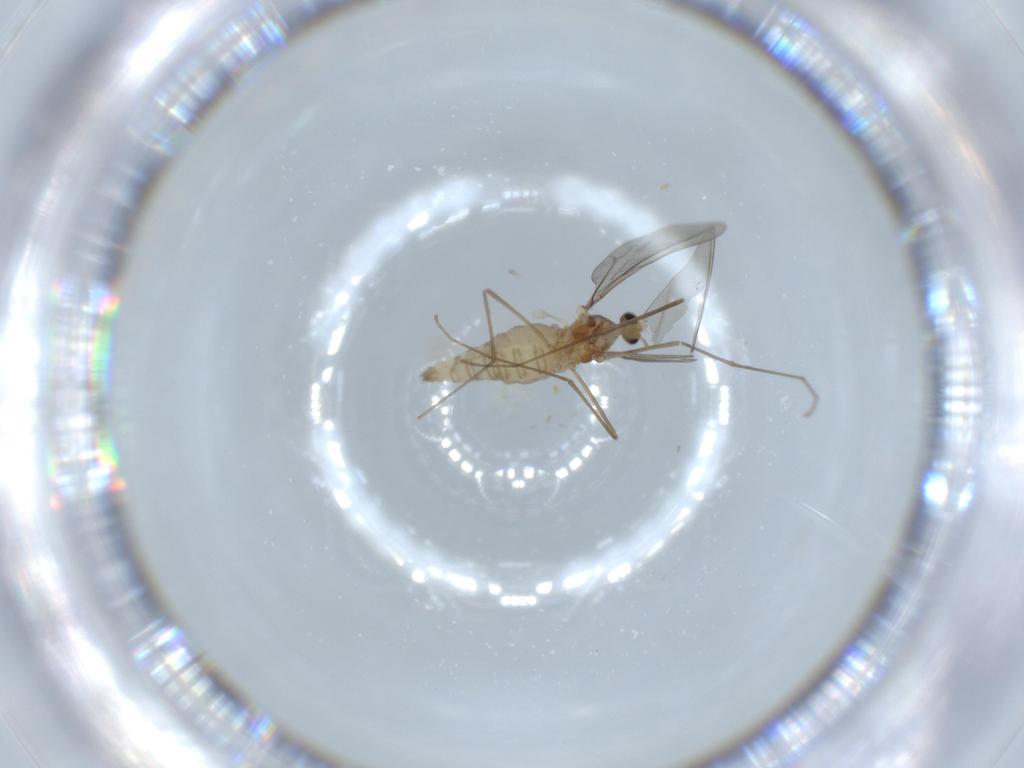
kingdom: Animalia
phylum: Arthropoda
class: Insecta
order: Diptera
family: Cecidomyiidae
